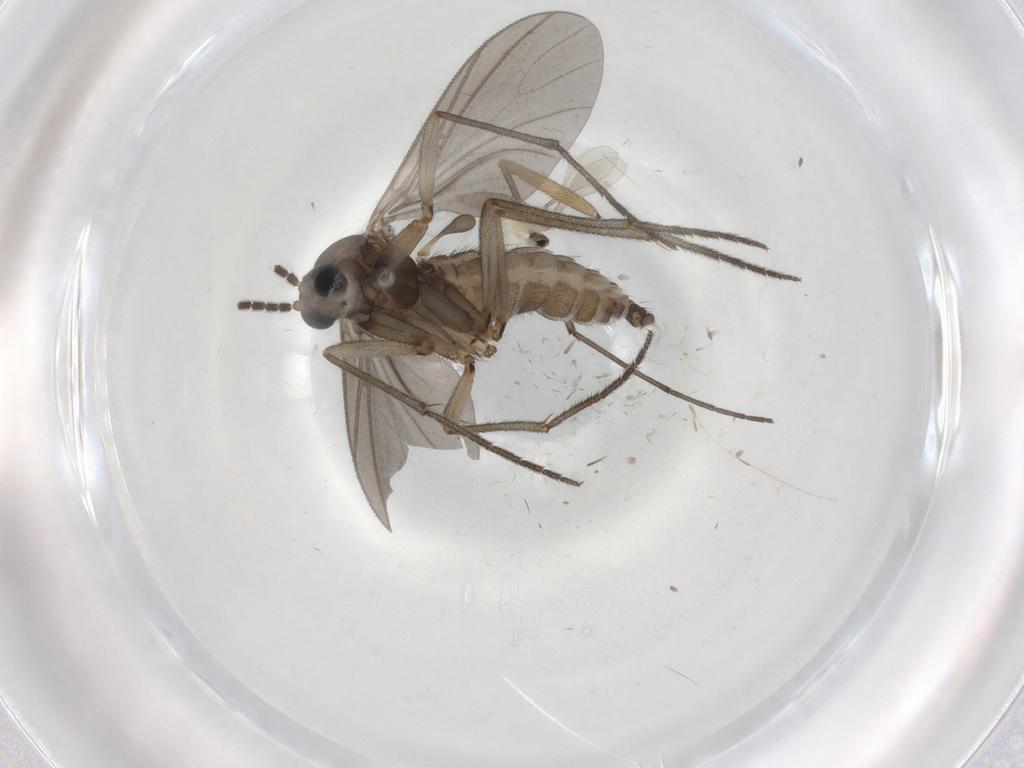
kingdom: Animalia
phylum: Arthropoda
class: Insecta
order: Diptera
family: Sciaridae
